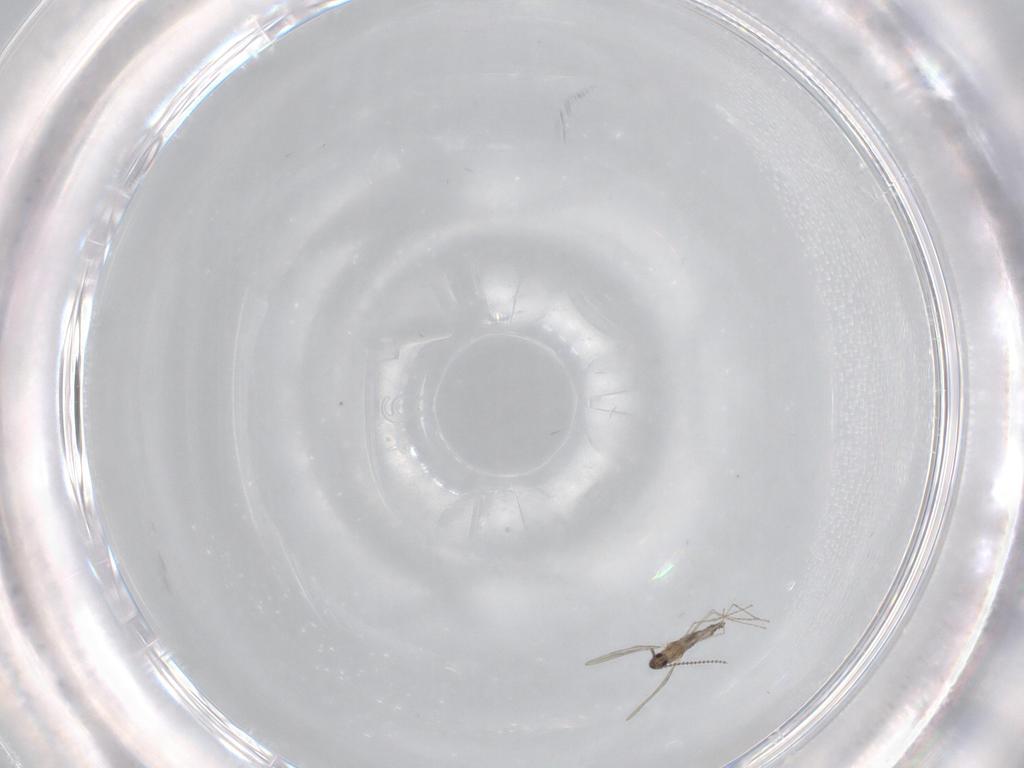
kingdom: Animalia
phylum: Arthropoda
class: Insecta
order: Diptera
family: Cecidomyiidae
